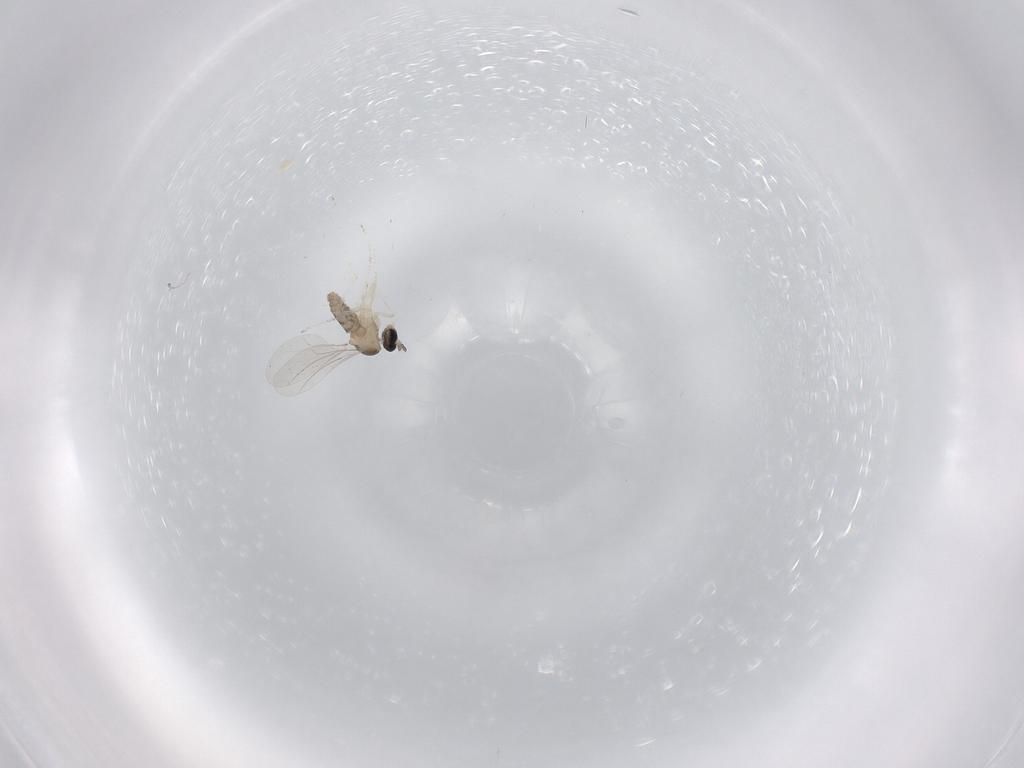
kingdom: Animalia
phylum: Arthropoda
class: Insecta
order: Diptera
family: Cecidomyiidae
